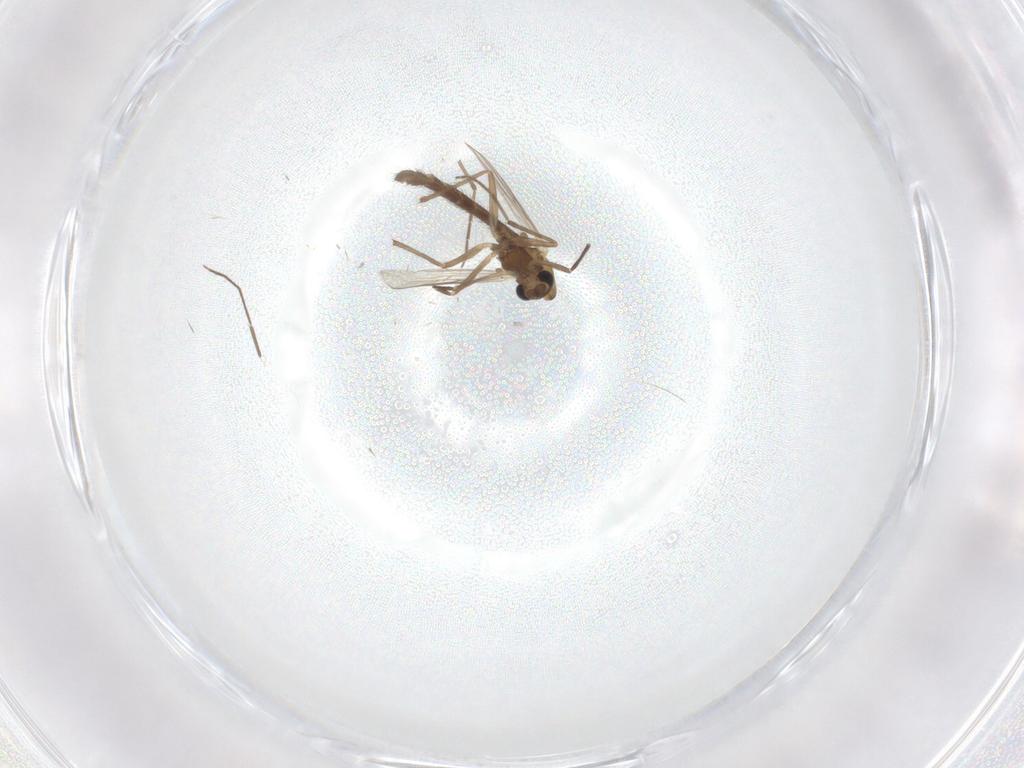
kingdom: Animalia
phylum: Arthropoda
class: Insecta
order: Diptera
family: Chironomidae
